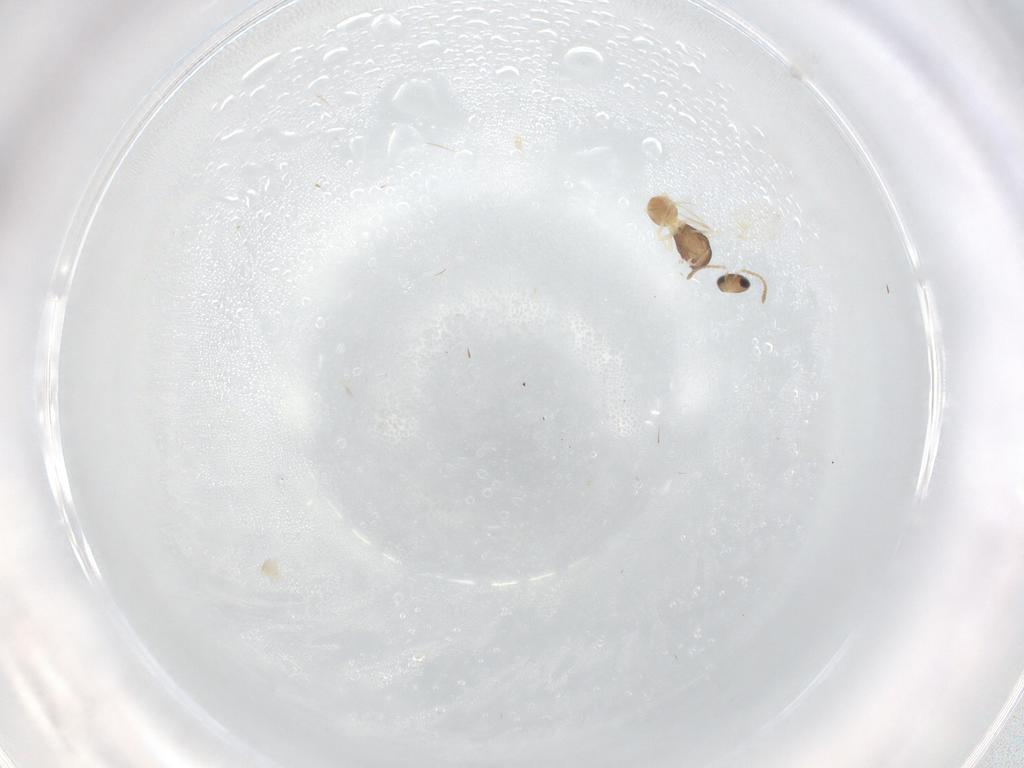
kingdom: Animalia
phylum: Arthropoda
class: Insecta
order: Hymenoptera
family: Scelionidae
